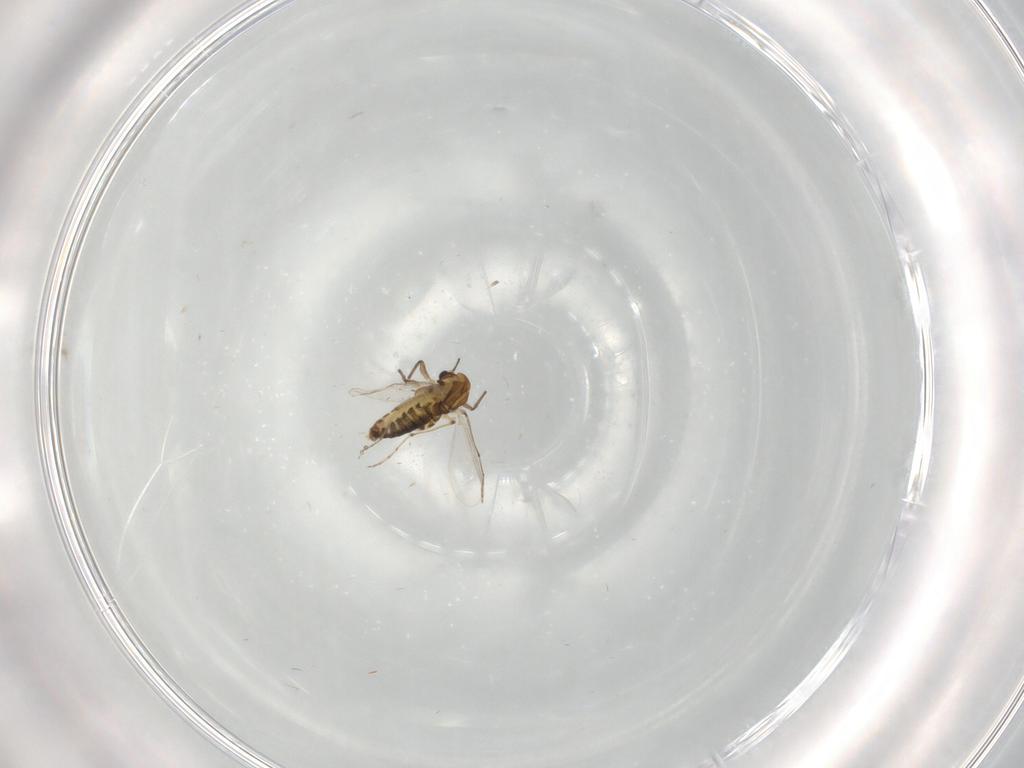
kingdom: Animalia
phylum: Arthropoda
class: Insecta
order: Diptera
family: Chironomidae
